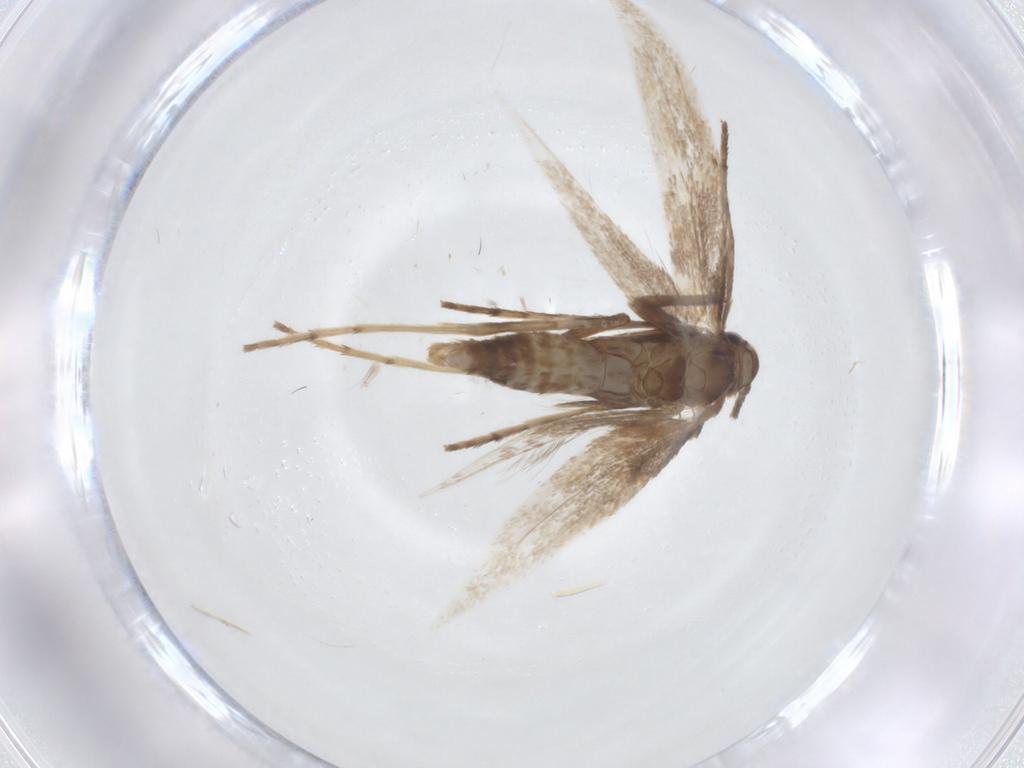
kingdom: Animalia
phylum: Arthropoda
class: Insecta
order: Lepidoptera
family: Gracillariidae
